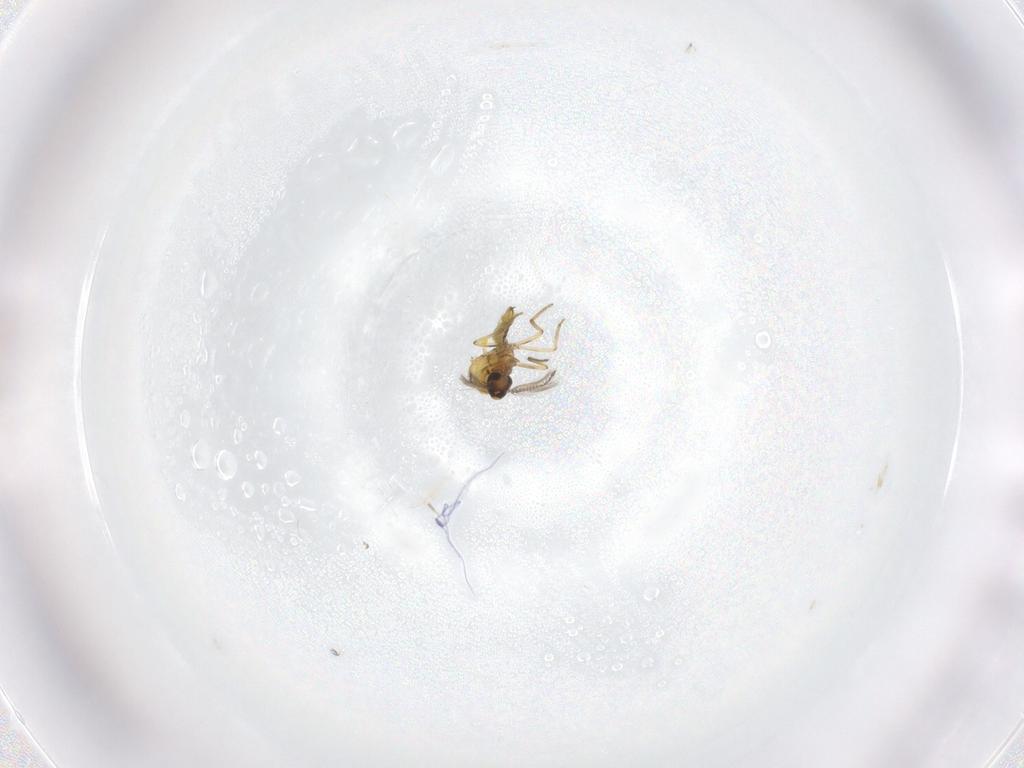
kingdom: Animalia
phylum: Arthropoda
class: Insecta
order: Diptera
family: Ceratopogonidae
